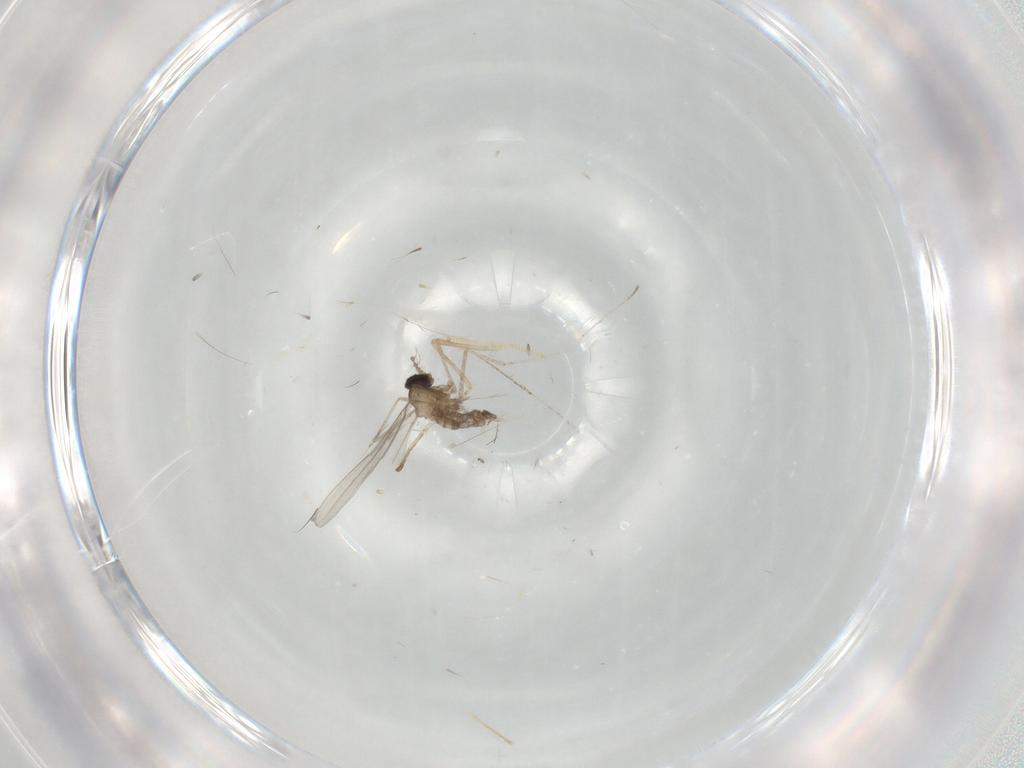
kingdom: Animalia
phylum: Arthropoda
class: Insecta
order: Diptera
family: Cecidomyiidae
